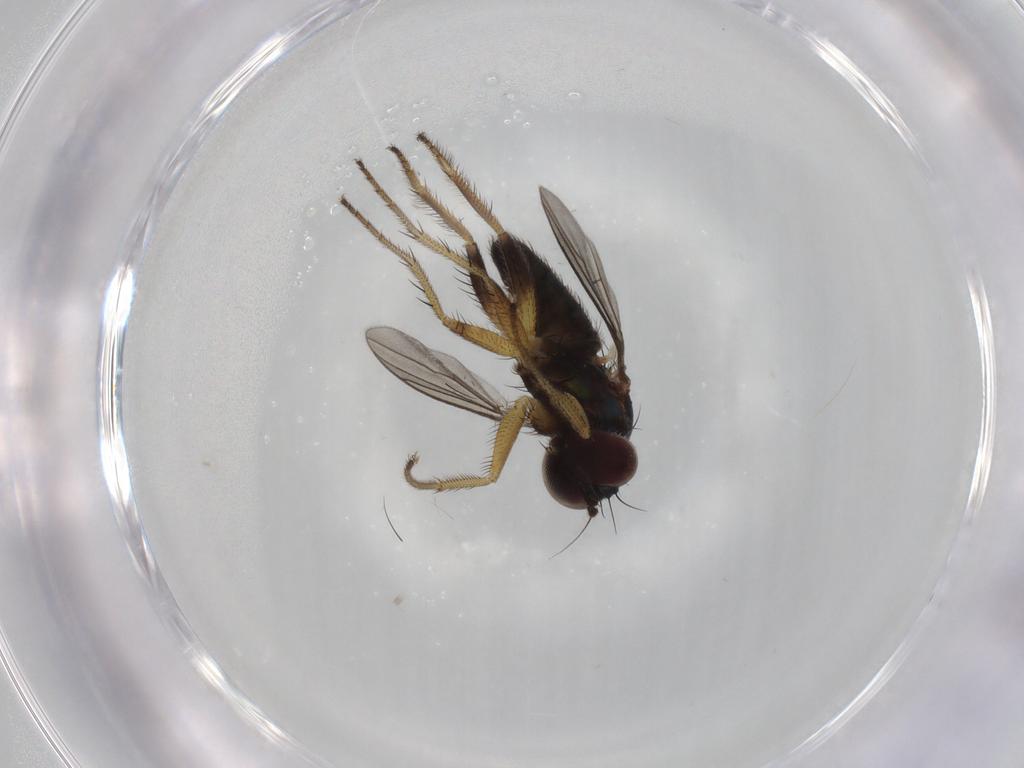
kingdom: Animalia
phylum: Arthropoda
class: Insecta
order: Diptera
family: Dolichopodidae
